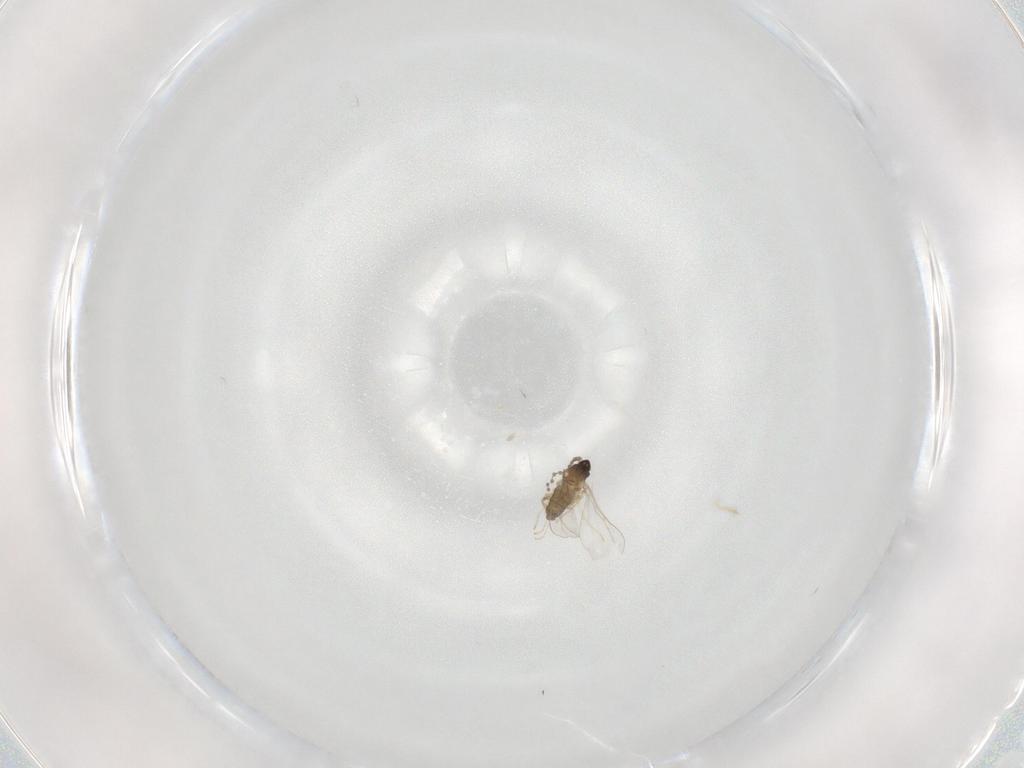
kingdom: Animalia
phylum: Arthropoda
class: Insecta
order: Diptera
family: Cecidomyiidae
